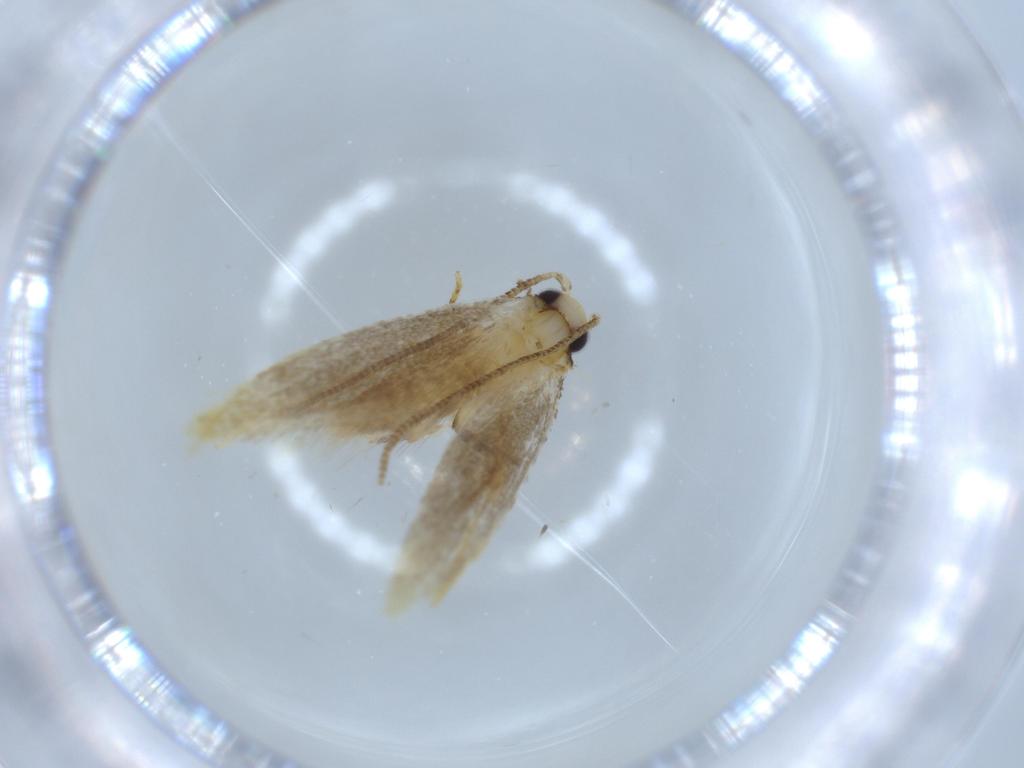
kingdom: Animalia
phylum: Arthropoda
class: Insecta
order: Lepidoptera
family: Tineidae
